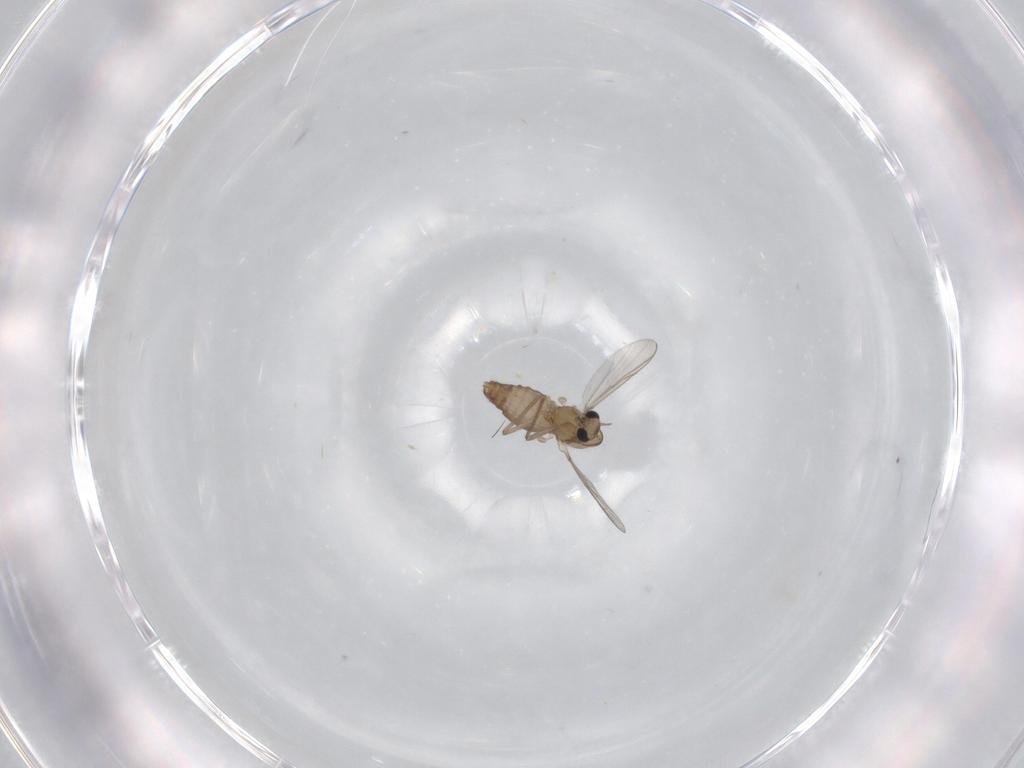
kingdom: Animalia
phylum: Arthropoda
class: Insecta
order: Diptera
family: Chironomidae
